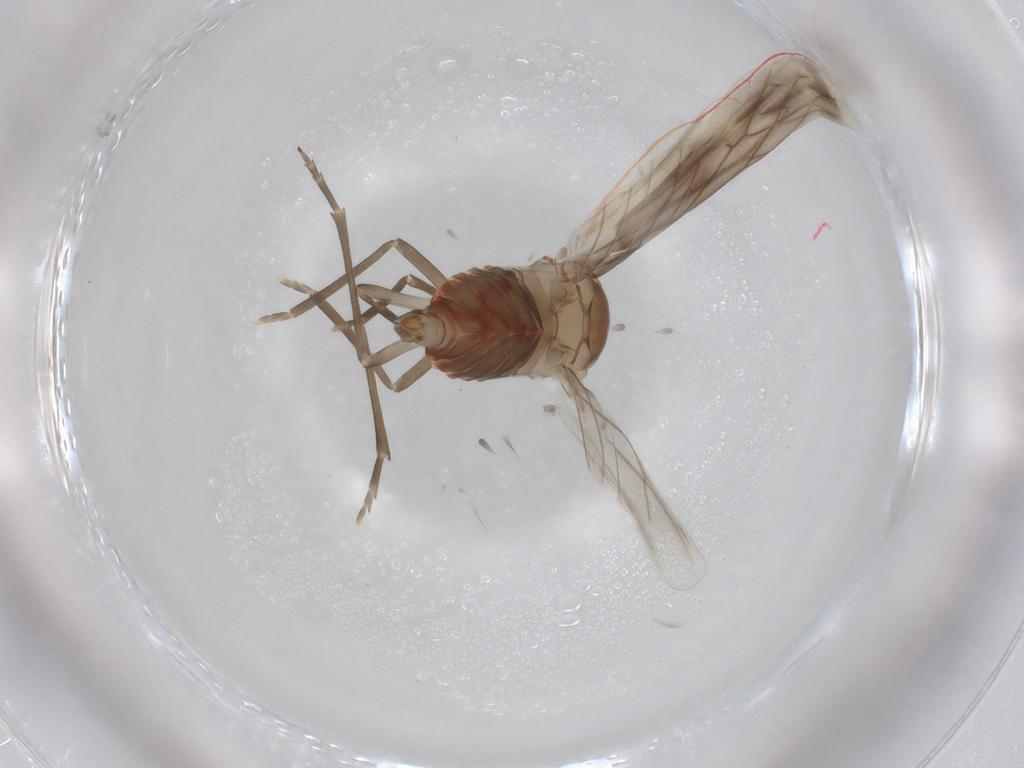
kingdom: Animalia
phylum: Arthropoda
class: Insecta
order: Hemiptera
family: Derbidae
